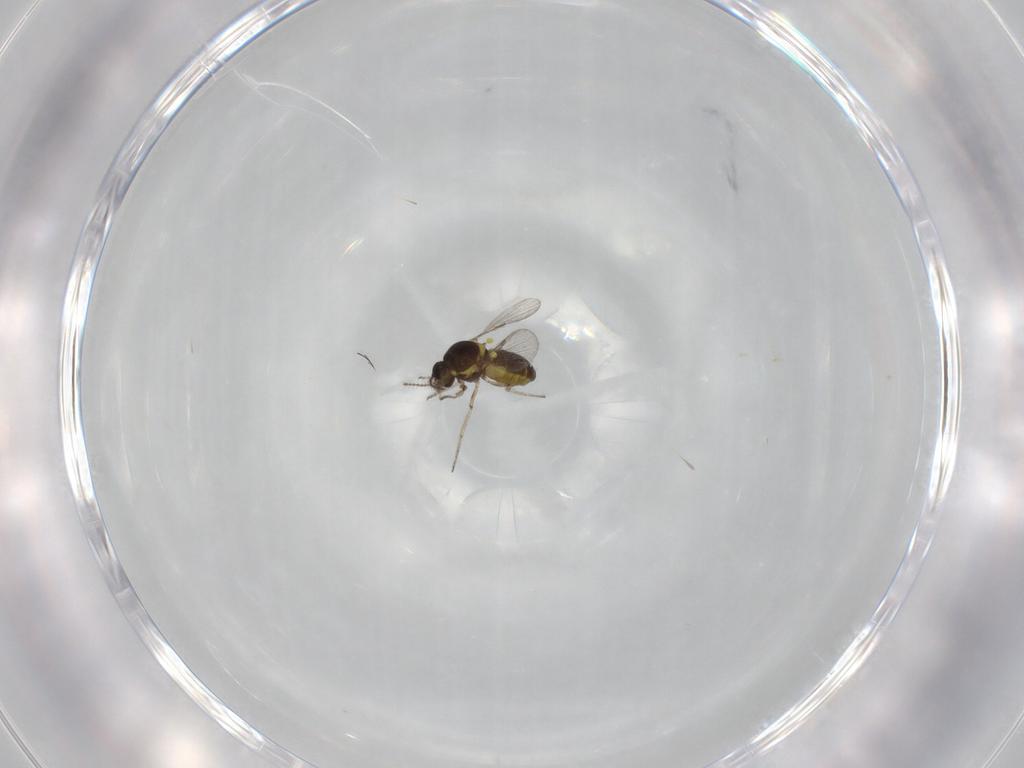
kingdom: Animalia
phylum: Arthropoda
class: Insecta
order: Diptera
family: Ceratopogonidae
